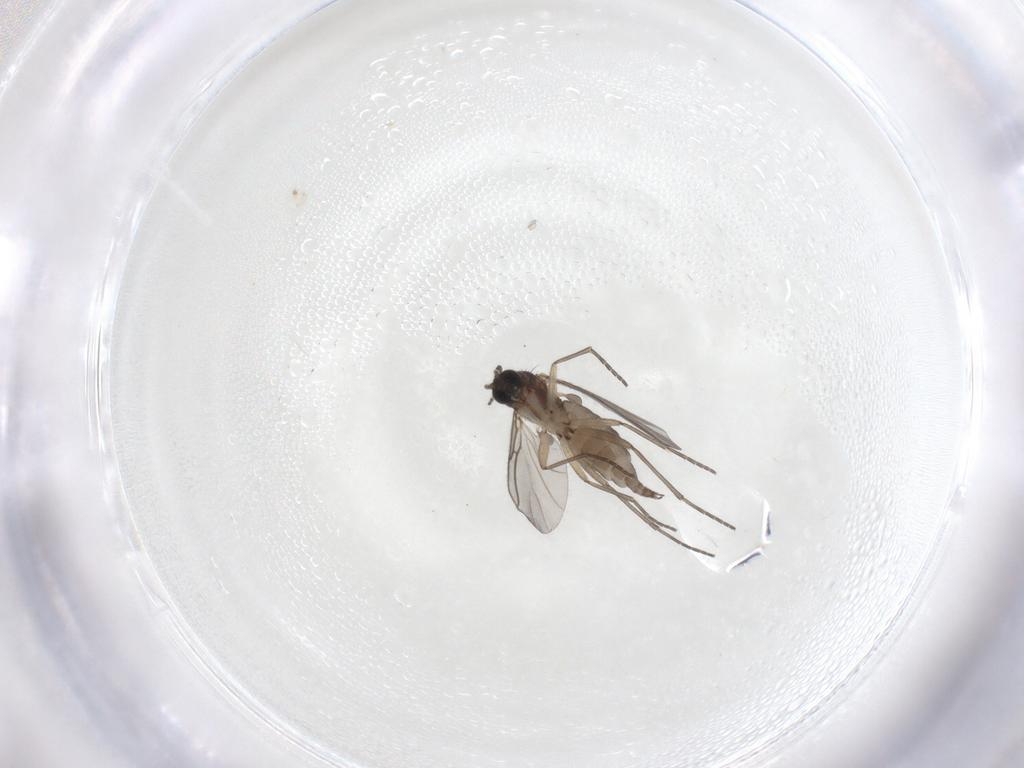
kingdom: Animalia
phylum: Arthropoda
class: Insecta
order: Diptera
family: Sciaridae
